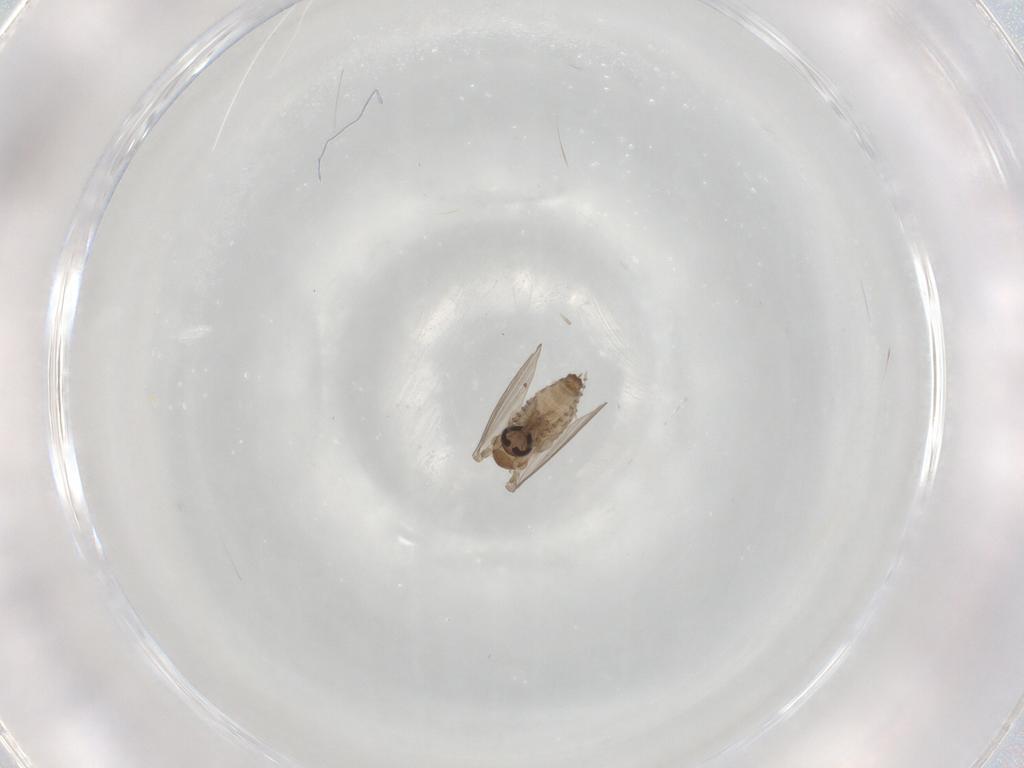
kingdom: Animalia
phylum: Arthropoda
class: Insecta
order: Diptera
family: Psychodidae
